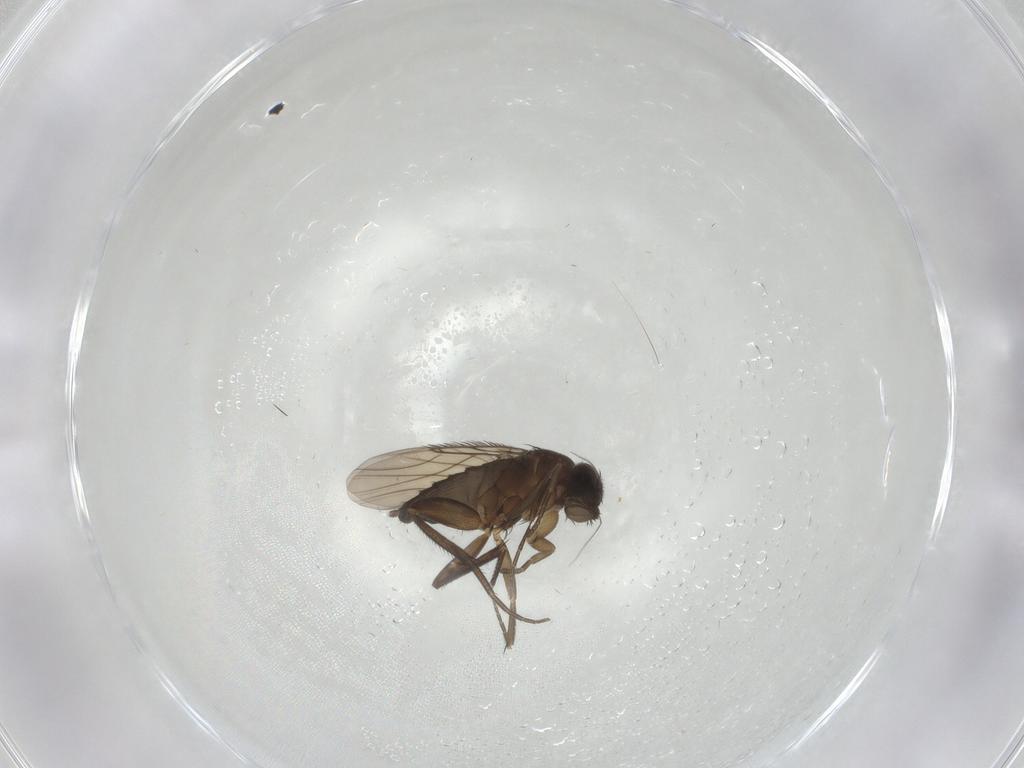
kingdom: Animalia
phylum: Arthropoda
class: Insecta
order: Diptera
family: Phoridae
